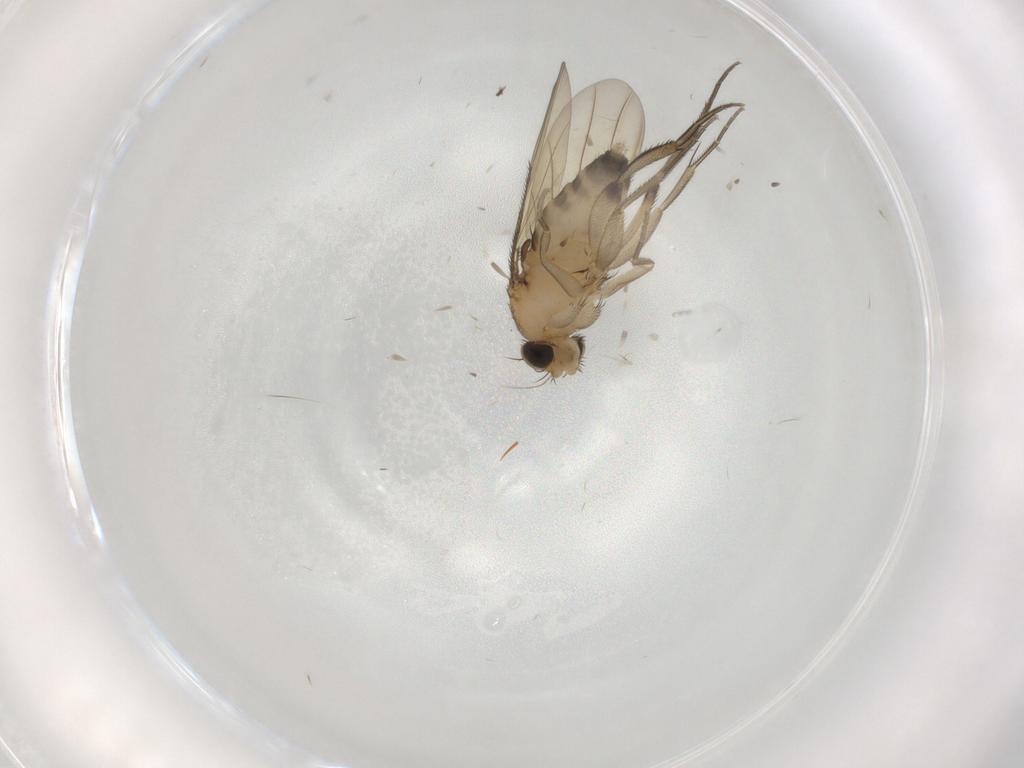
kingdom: Animalia
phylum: Arthropoda
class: Insecta
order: Diptera
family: Phoridae
